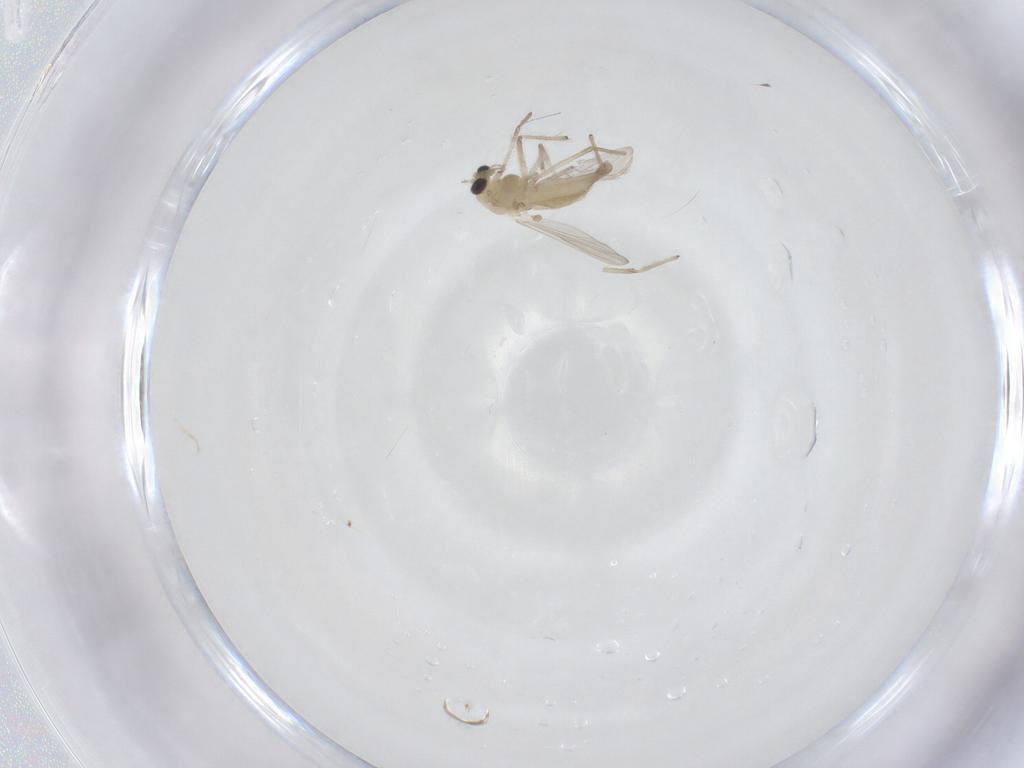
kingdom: Animalia
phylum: Arthropoda
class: Insecta
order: Diptera
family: Chironomidae
